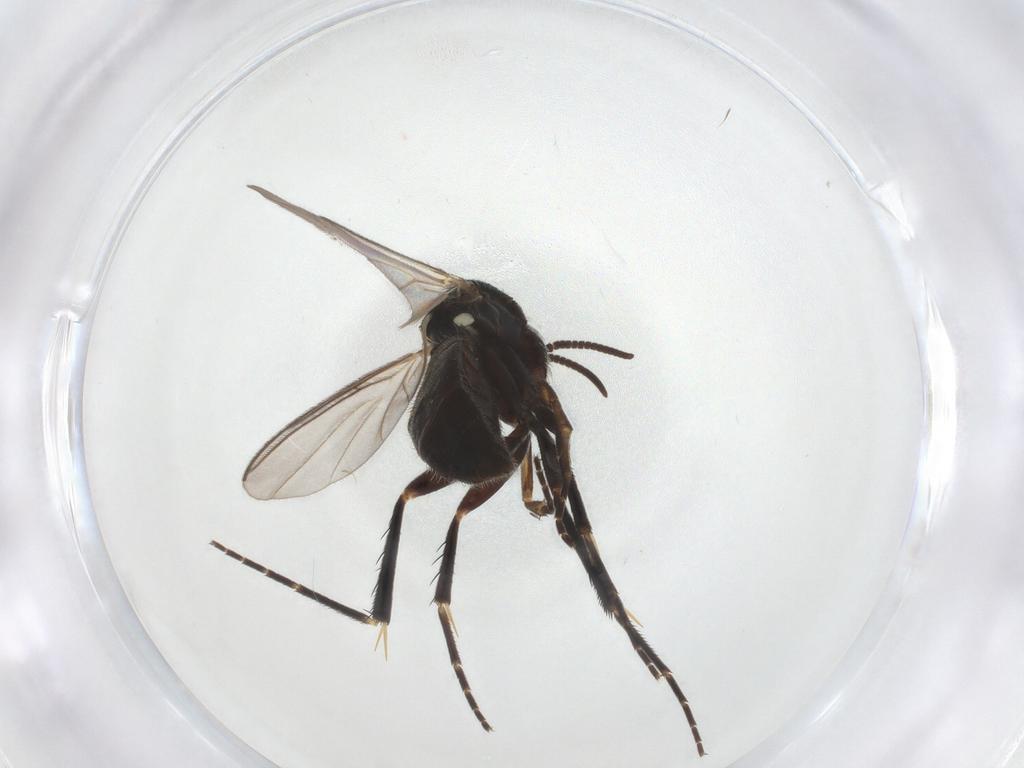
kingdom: Animalia
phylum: Arthropoda
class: Insecta
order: Diptera
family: Mycetophilidae
